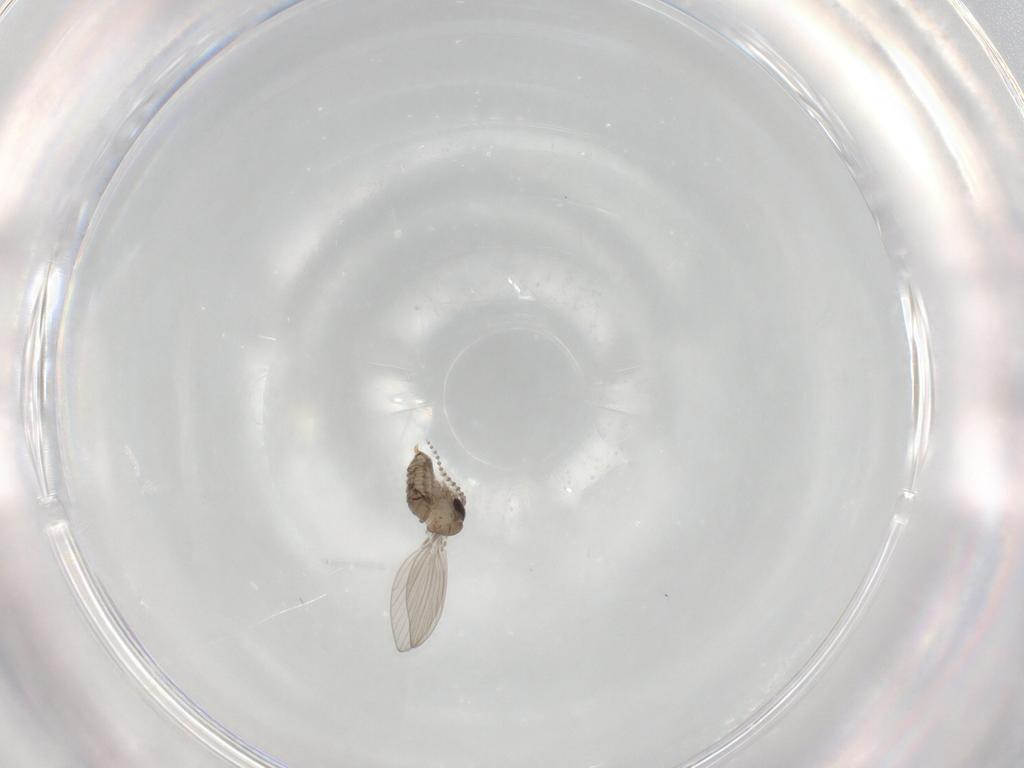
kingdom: Animalia
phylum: Arthropoda
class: Insecta
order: Diptera
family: Psychodidae
